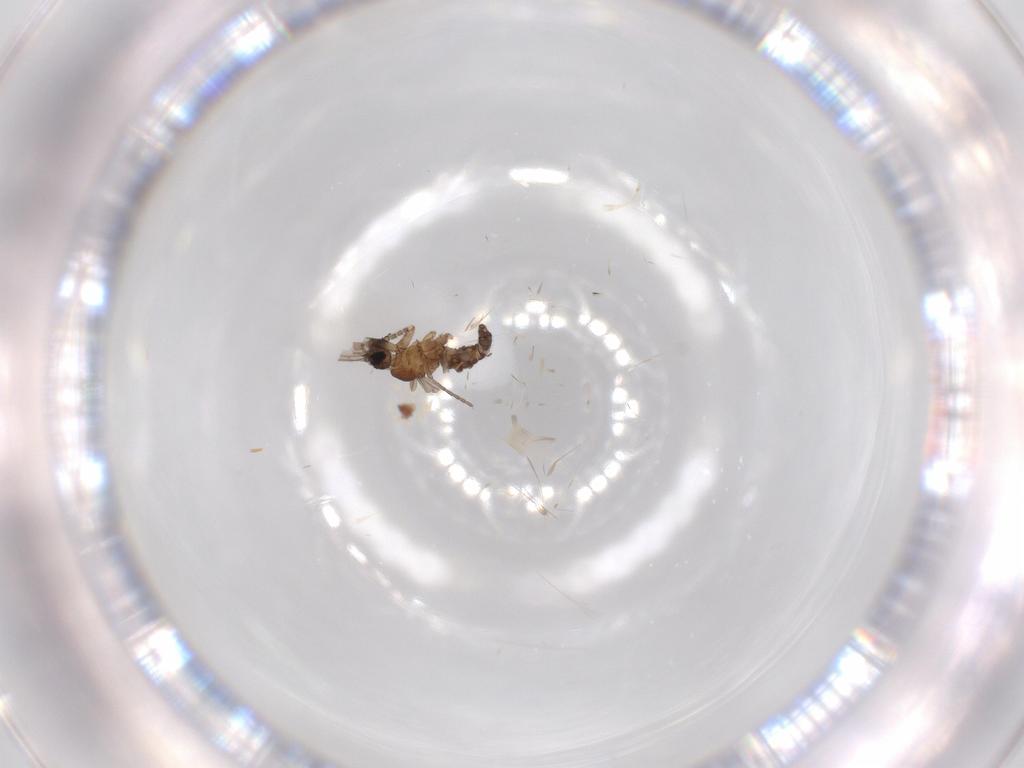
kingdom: Animalia
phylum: Arthropoda
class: Insecta
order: Diptera
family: Sciaridae
